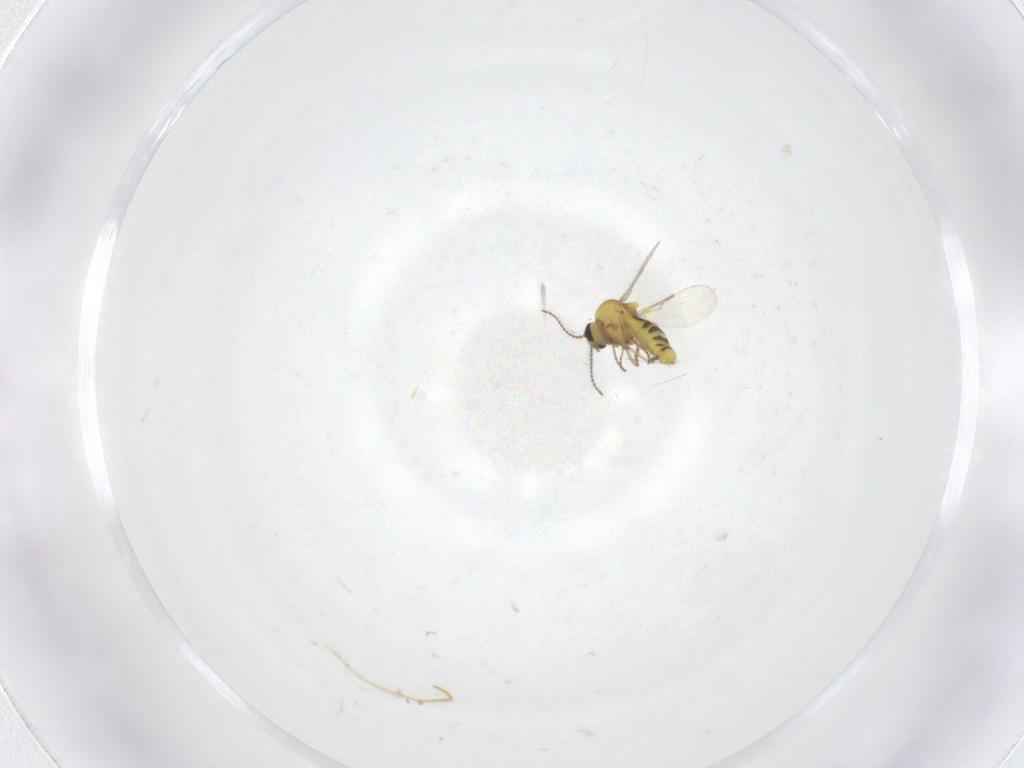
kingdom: Animalia
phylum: Arthropoda
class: Insecta
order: Diptera
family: Ceratopogonidae
